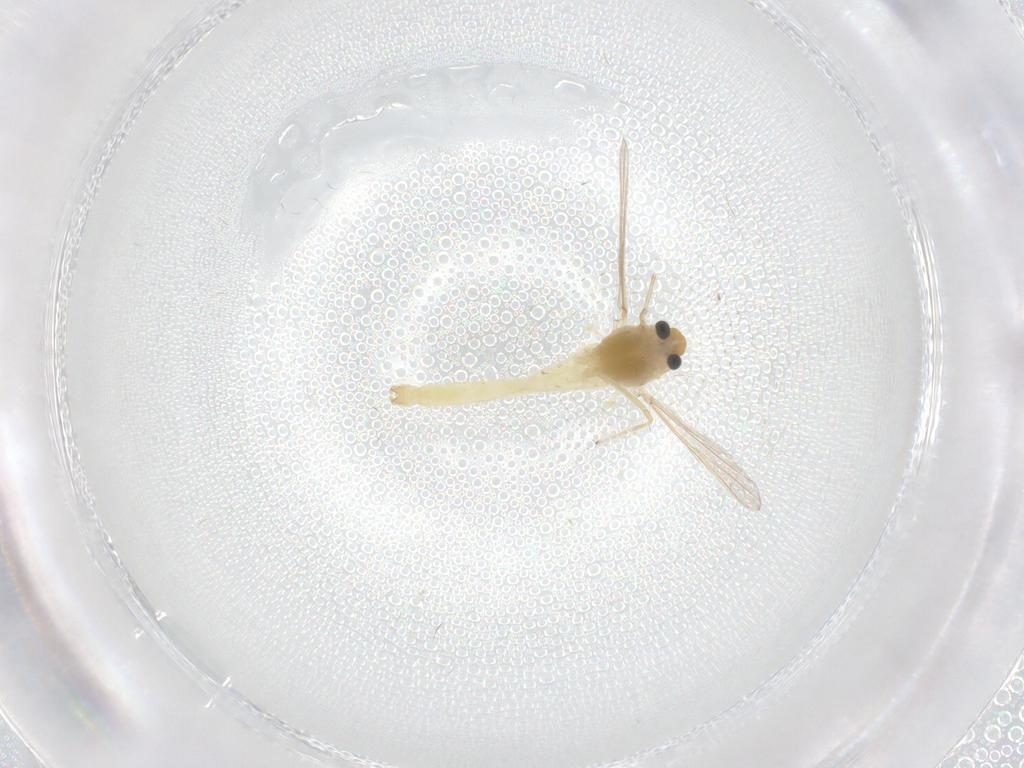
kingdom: Animalia
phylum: Arthropoda
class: Insecta
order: Diptera
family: Chironomidae
